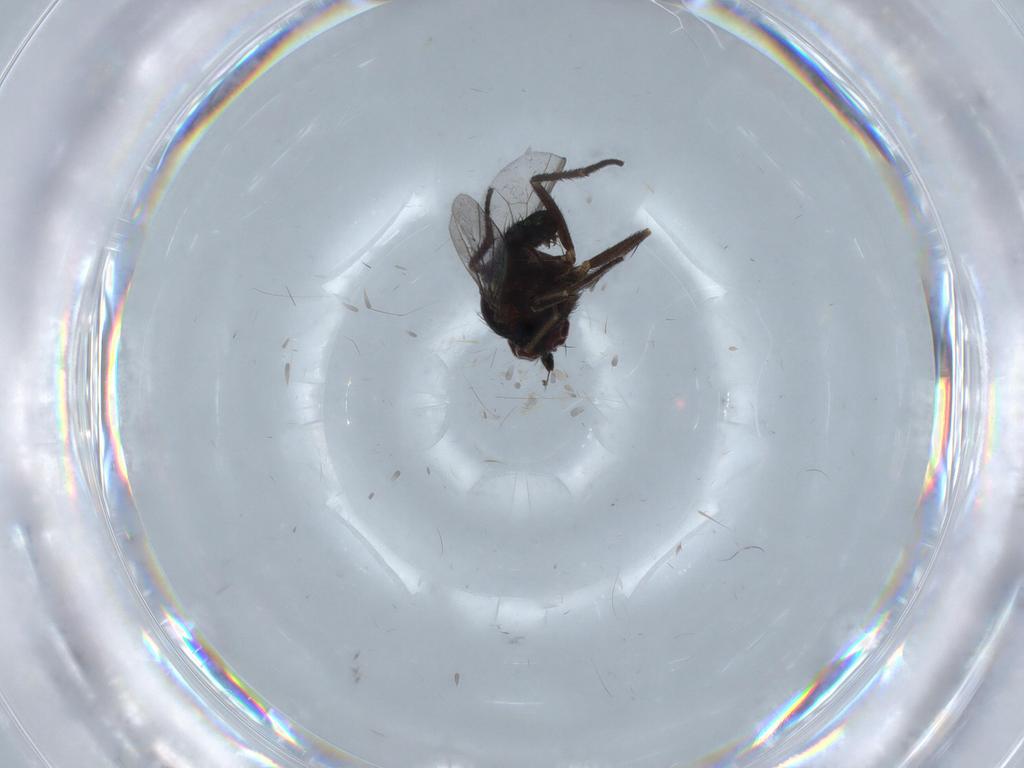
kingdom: Animalia
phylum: Arthropoda
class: Insecta
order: Diptera
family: Dolichopodidae
